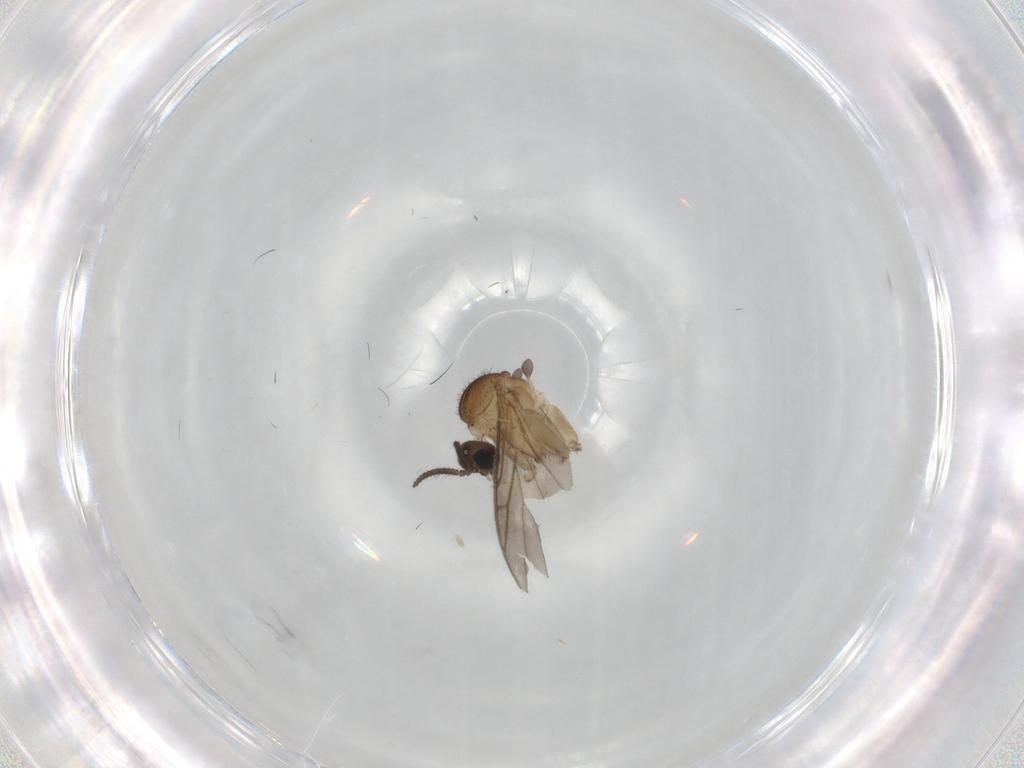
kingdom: Animalia
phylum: Arthropoda
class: Insecta
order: Diptera
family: Keroplatidae
